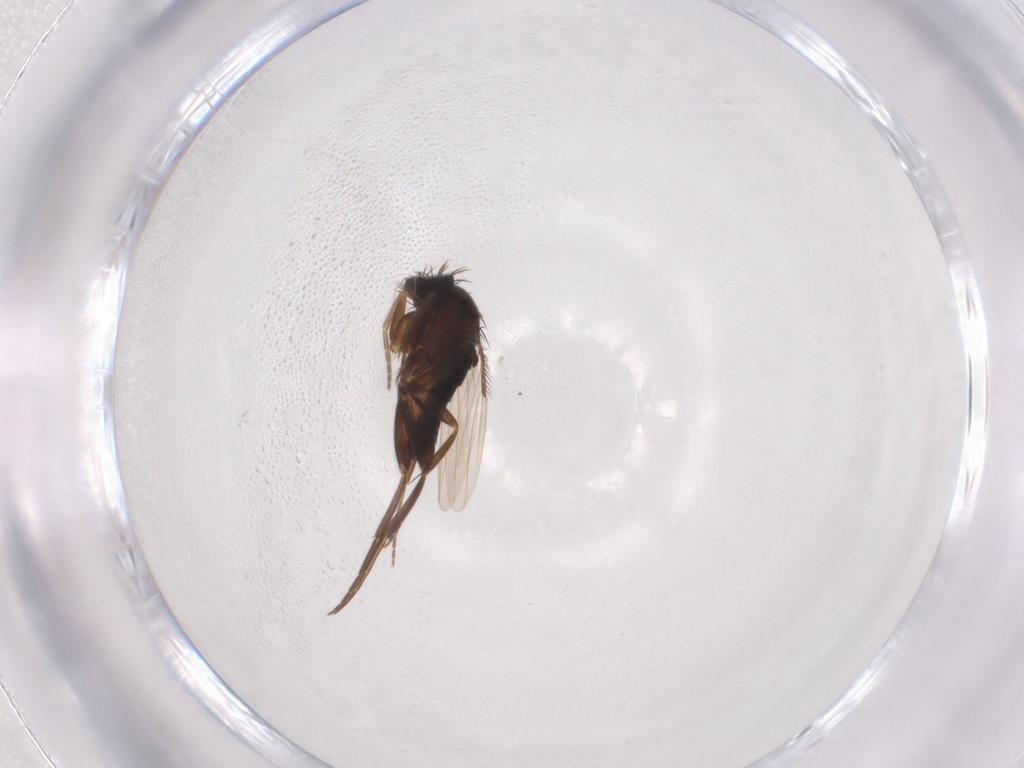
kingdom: Animalia
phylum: Arthropoda
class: Insecta
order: Diptera
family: Phoridae
